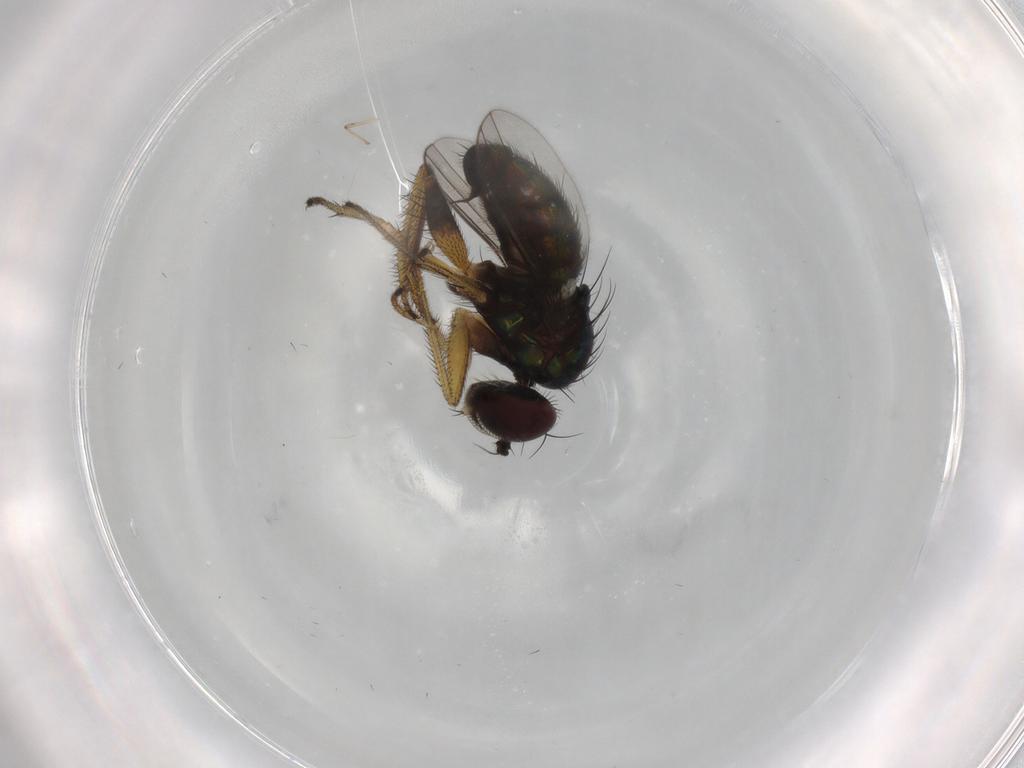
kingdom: Animalia
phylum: Arthropoda
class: Insecta
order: Diptera
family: Dolichopodidae
